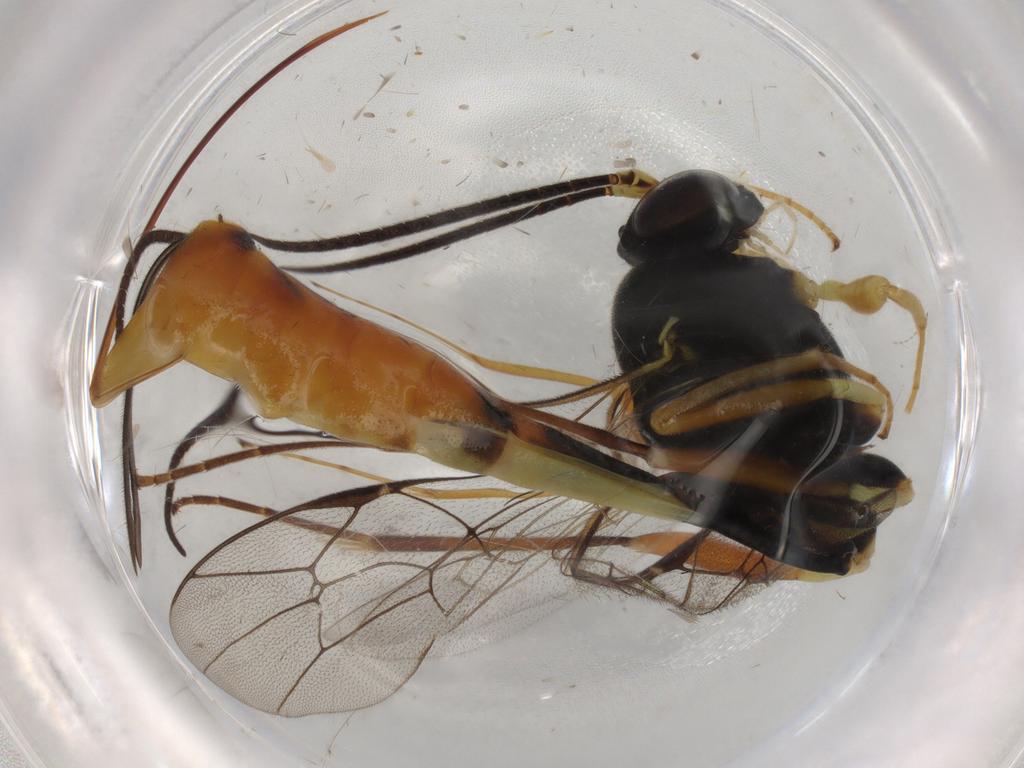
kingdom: Animalia
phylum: Arthropoda
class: Insecta
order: Hymenoptera
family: Ichneumonidae
